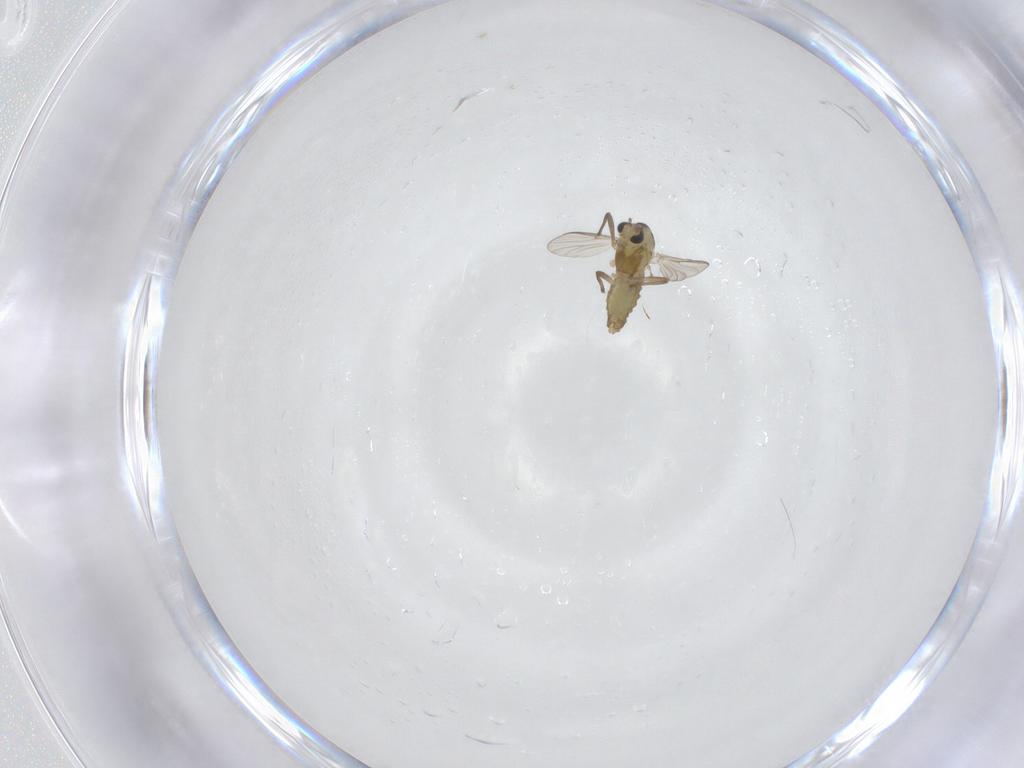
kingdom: Animalia
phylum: Arthropoda
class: Insecta
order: Diptera
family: Chironomidae
